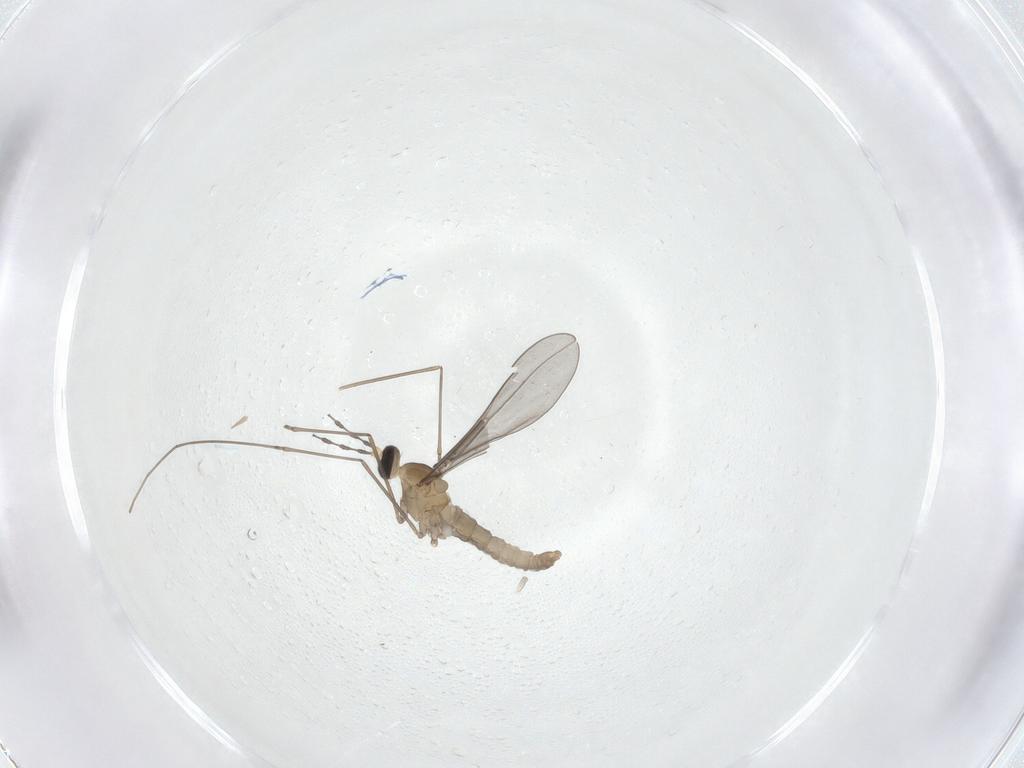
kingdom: Animalia
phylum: Arthropoda
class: Insecta
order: Diptera
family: Cecidomyiidae
